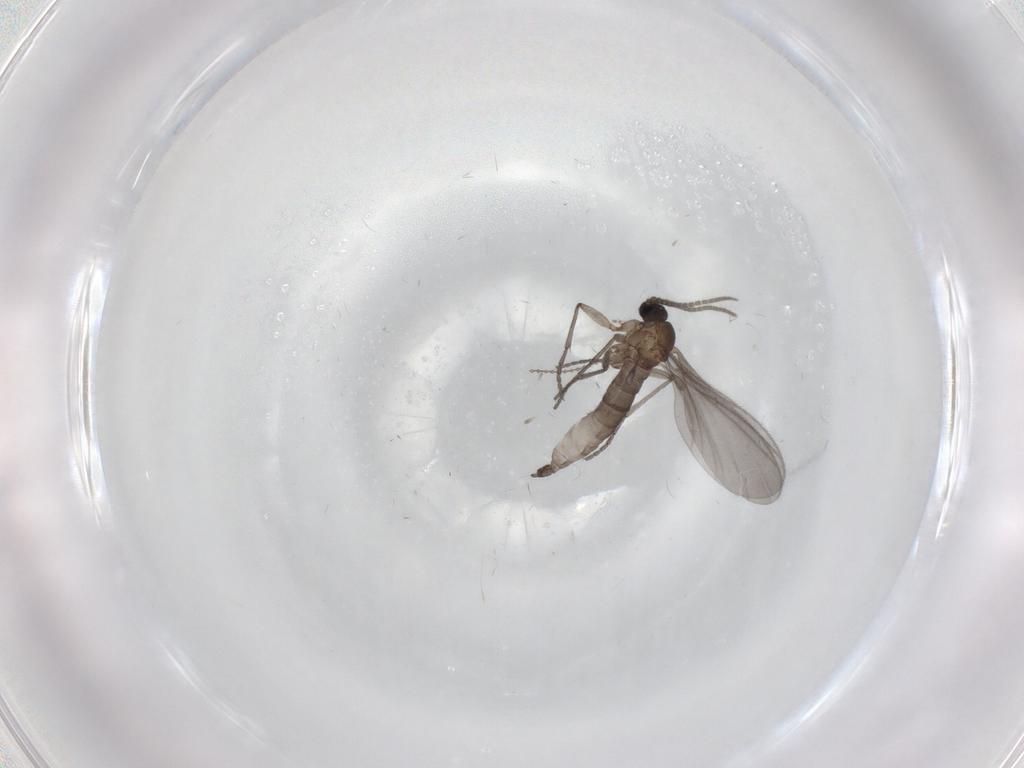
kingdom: Animalia
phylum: Arthropoda
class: Insecta
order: Diptera
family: Sciaridae
